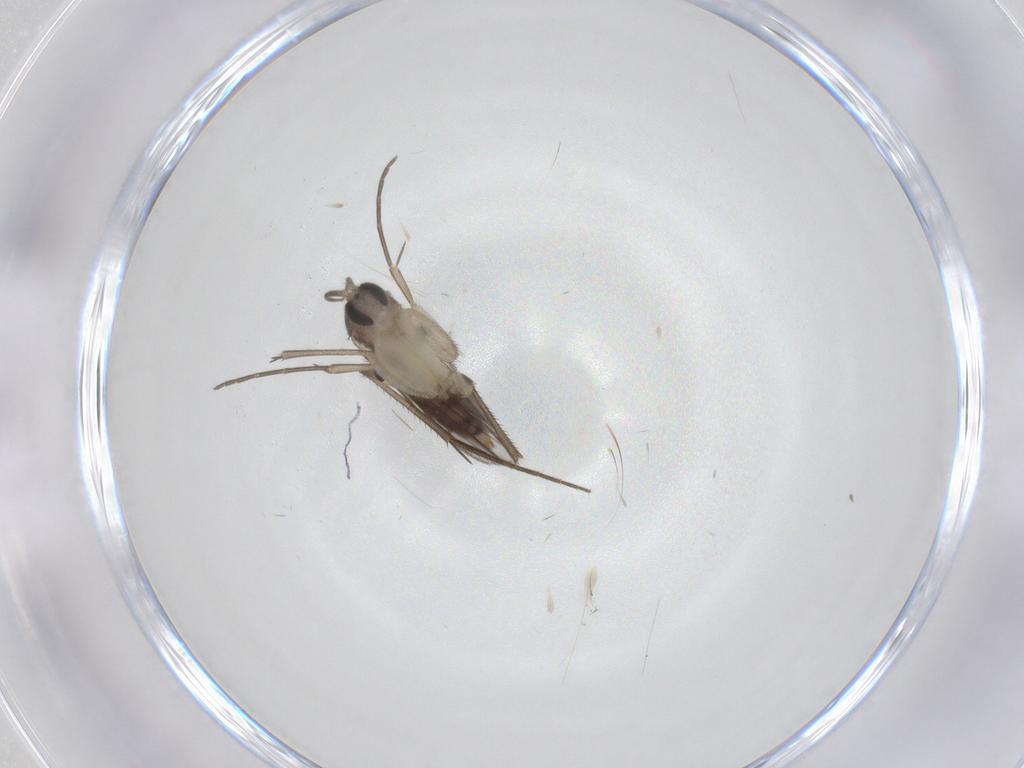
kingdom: Animalia
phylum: Arthropoda
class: Insecta
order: Diptera
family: Mycetophilidae
